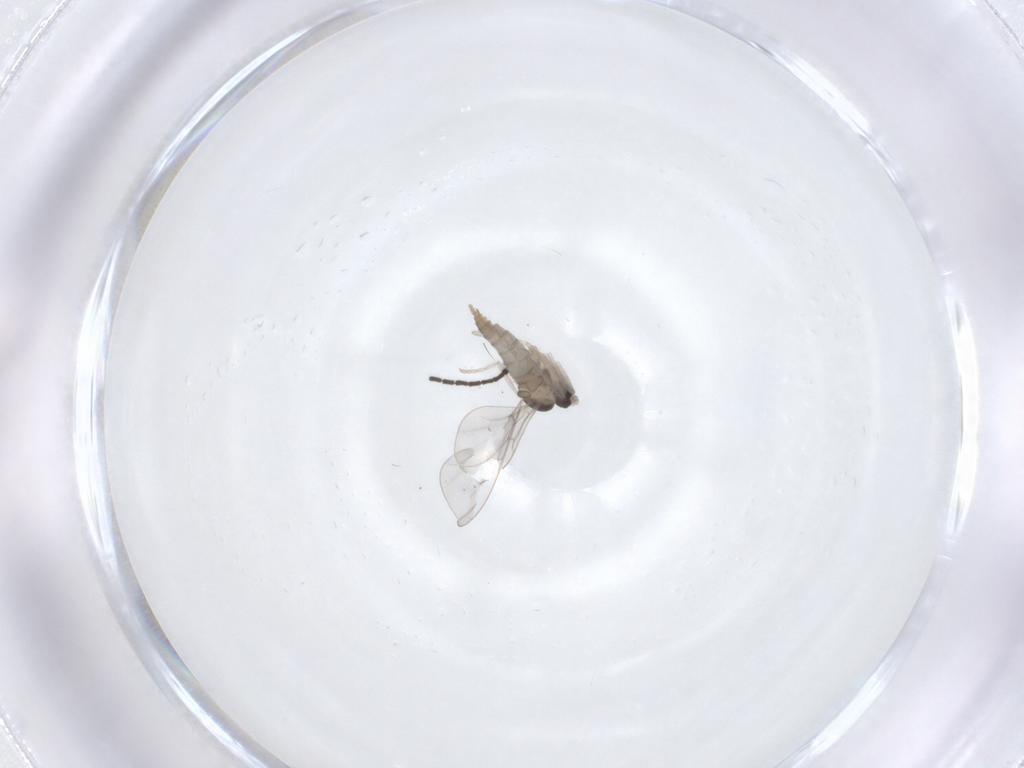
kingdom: Animalia
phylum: Arthropoda
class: Insecta
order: Diptera
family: Cecidomyiidae
